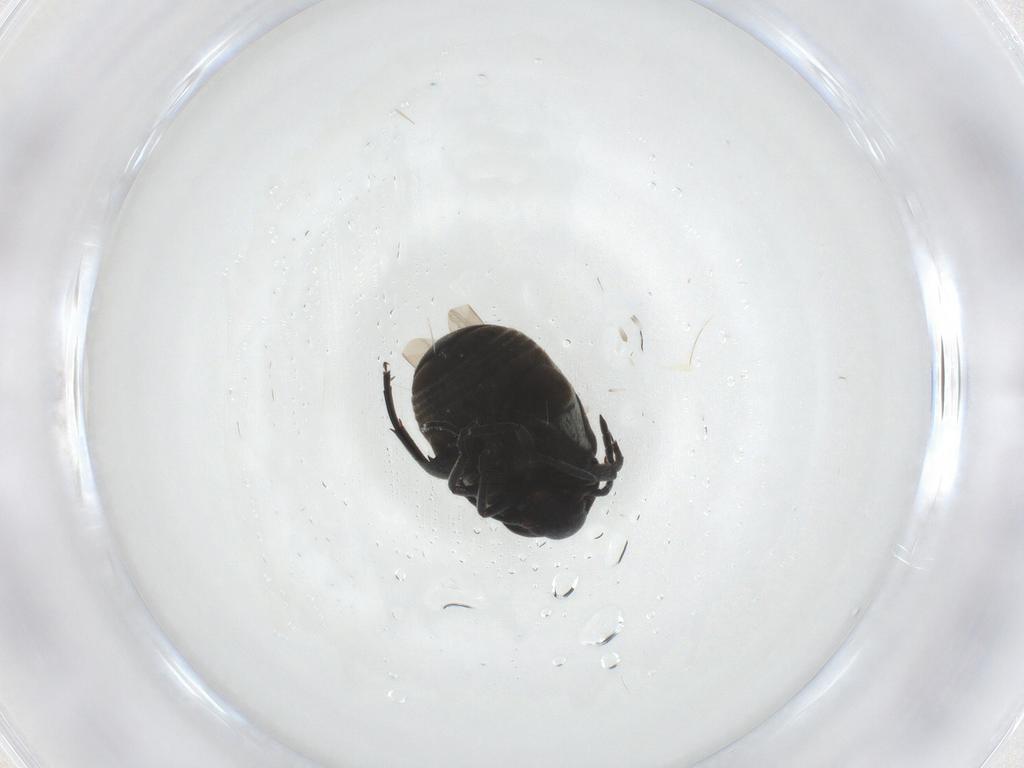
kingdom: Animalia
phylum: Arthropoda
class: Insecta
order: Coleoptera
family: Chrysomelidae
